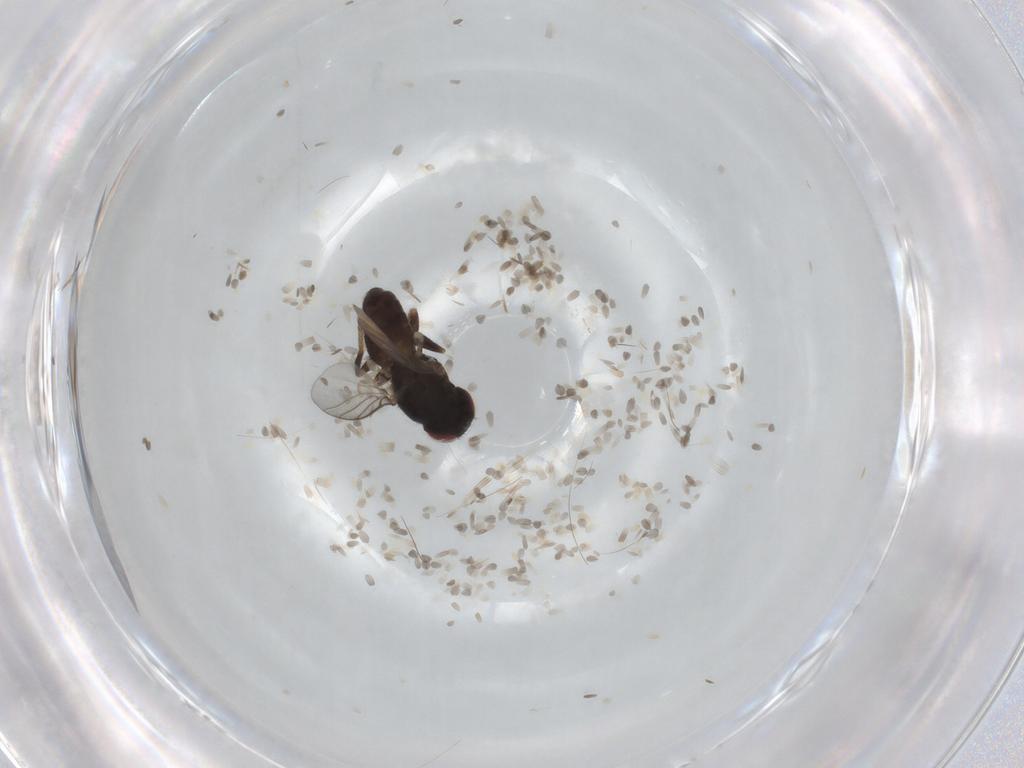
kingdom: Animalia
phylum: Arthropoda
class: Insecta
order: Diptera
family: Chloropidae
